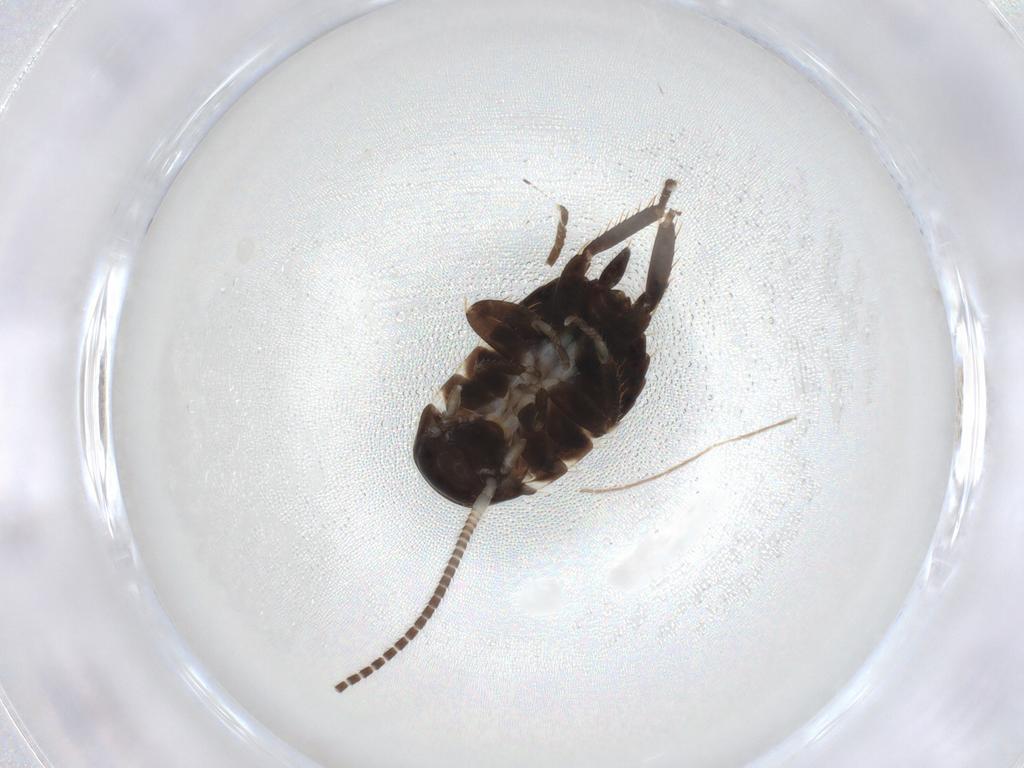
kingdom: Animalia
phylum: Arthropoda
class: Insecta
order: Blattodea
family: Ectobiidae
